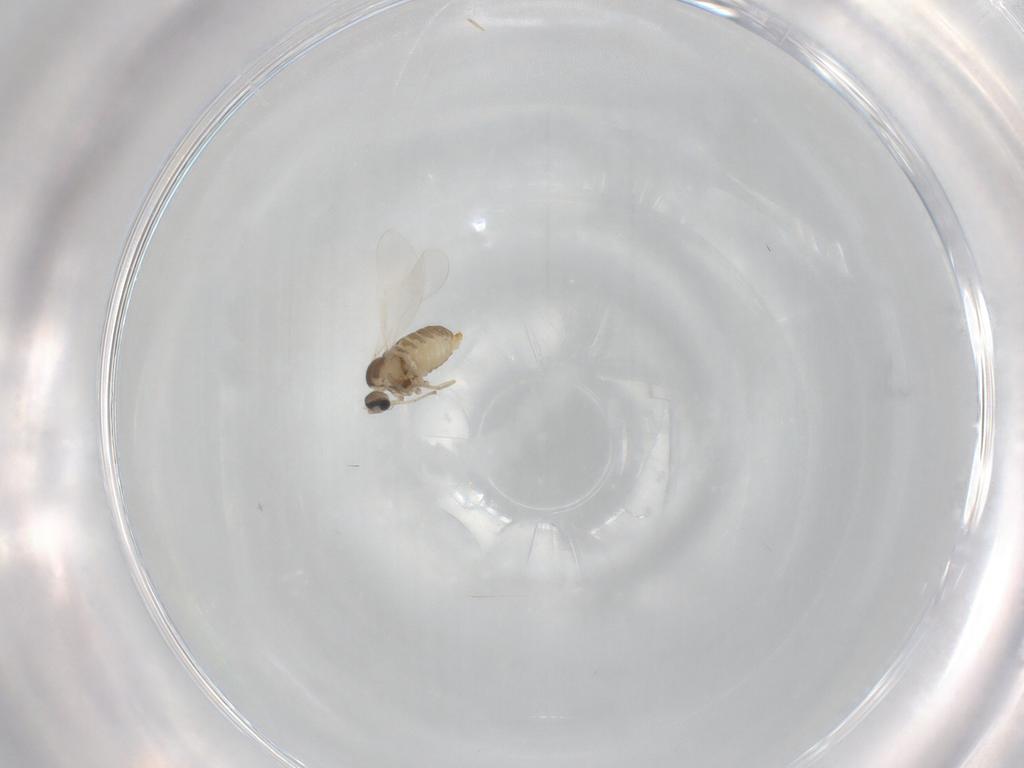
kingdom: Animalia
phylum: Arthropoda
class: Insecta
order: Diptera
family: Cecidomyiidae
